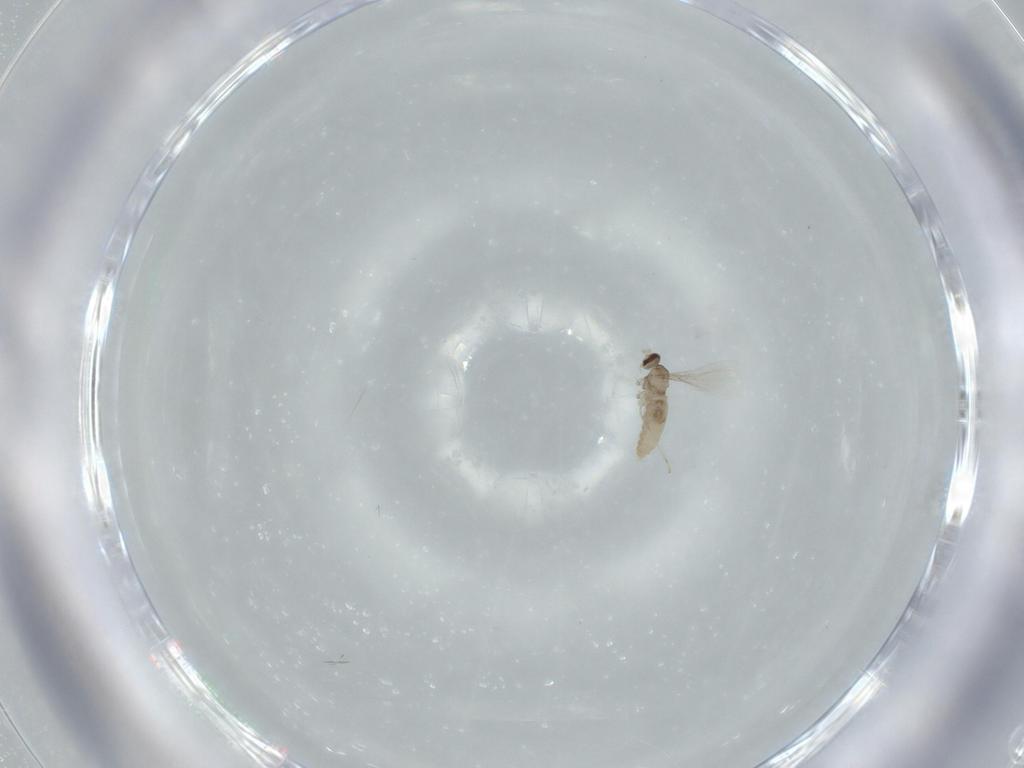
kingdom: Animalia
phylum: Arthropoda
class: Insecta
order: Diptera
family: Cecidomyiidae
